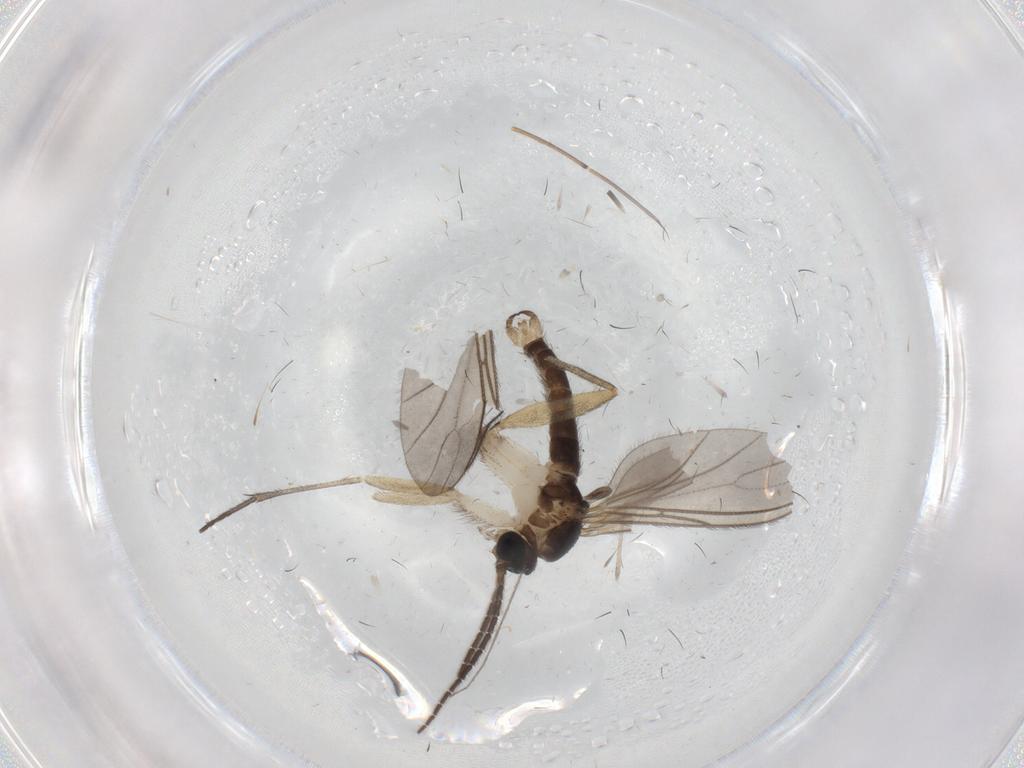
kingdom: Animalia
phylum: Arthropoda
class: Insecta
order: Diptera
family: Sciaridae
